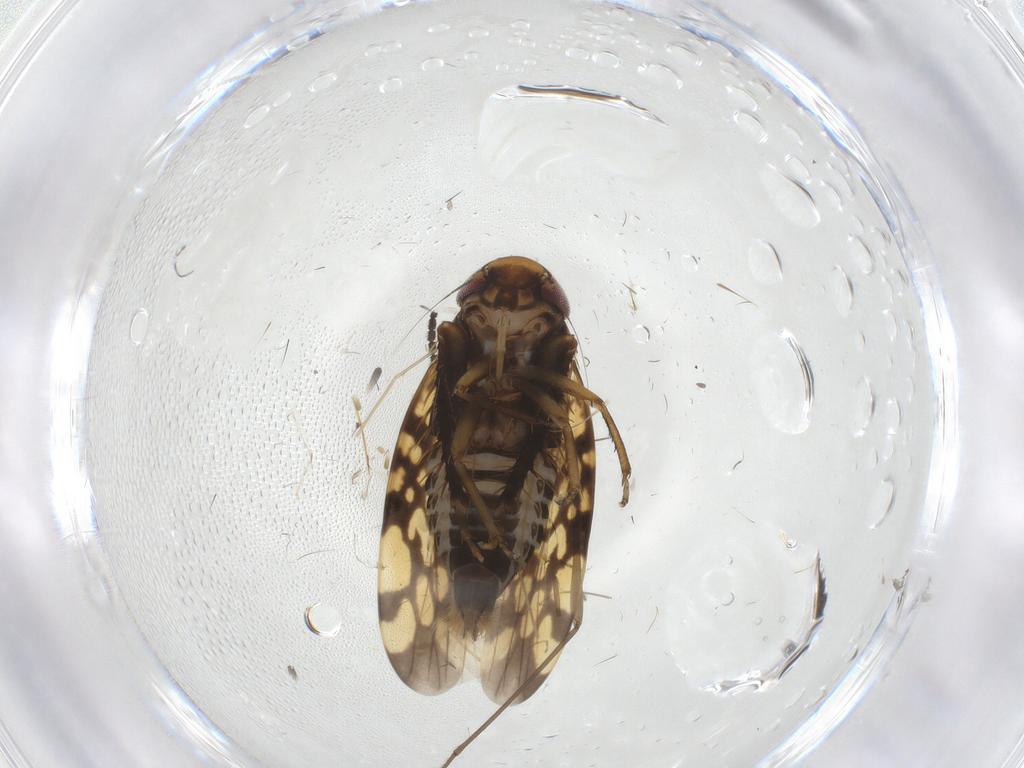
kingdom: Animalia
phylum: Arthropoda
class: Insecta
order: Hemiptera
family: Cicadellidae
